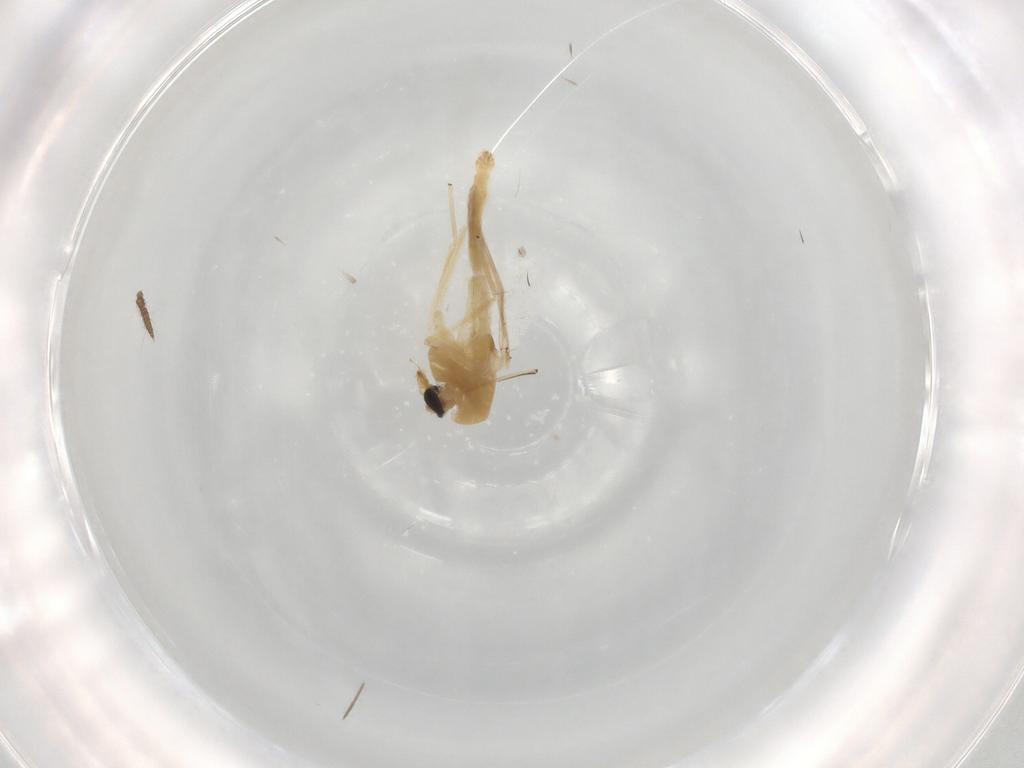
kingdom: Animalia
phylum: Arthropoda
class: Insecta
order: Diptera
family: Chironomidae
